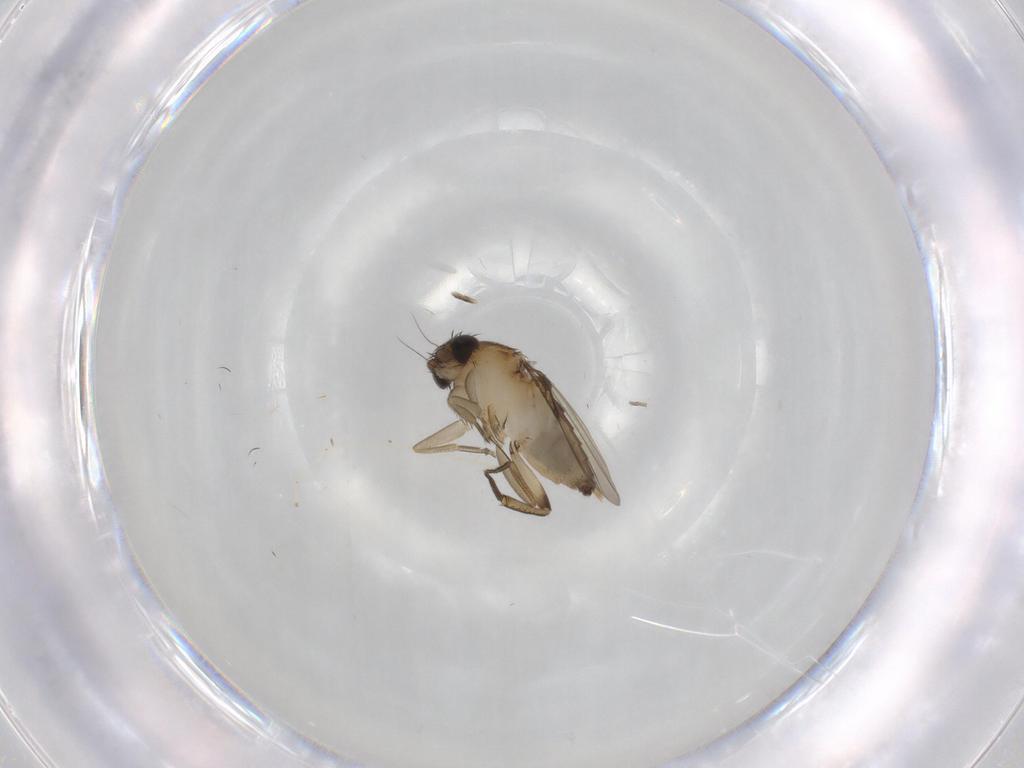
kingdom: Animalia
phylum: Arthropoda
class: Insecta
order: Diptera
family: Phoridae
